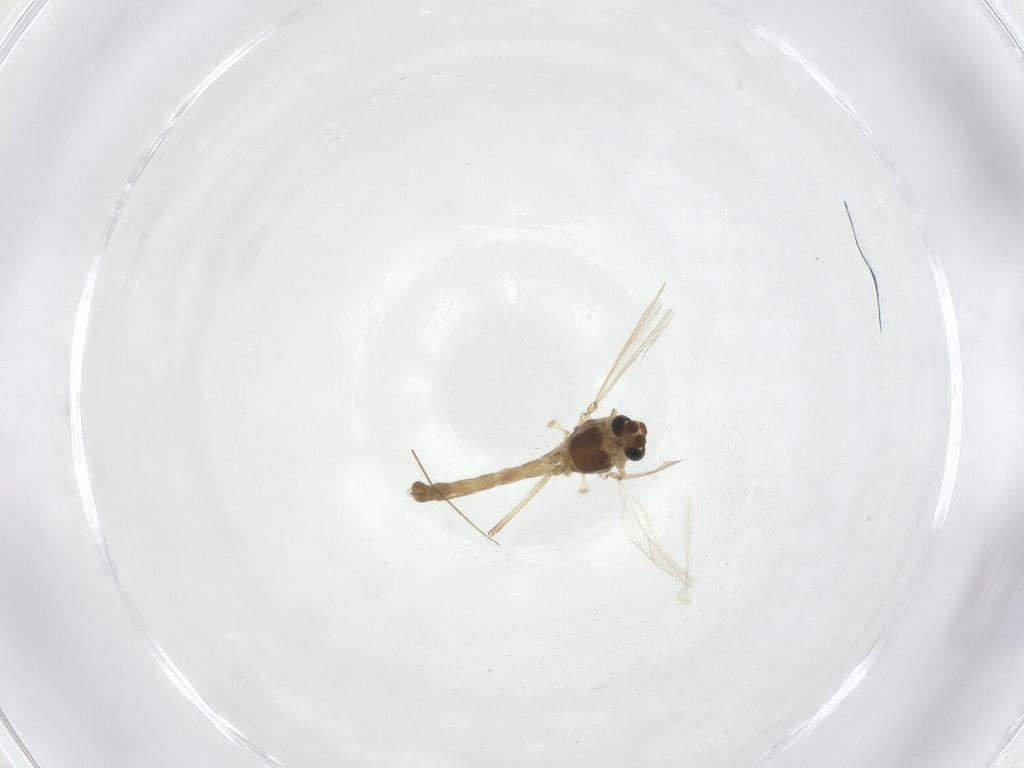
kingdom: Animalia
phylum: Arthropoda
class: Insecta
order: Diptera
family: Chironomidae
